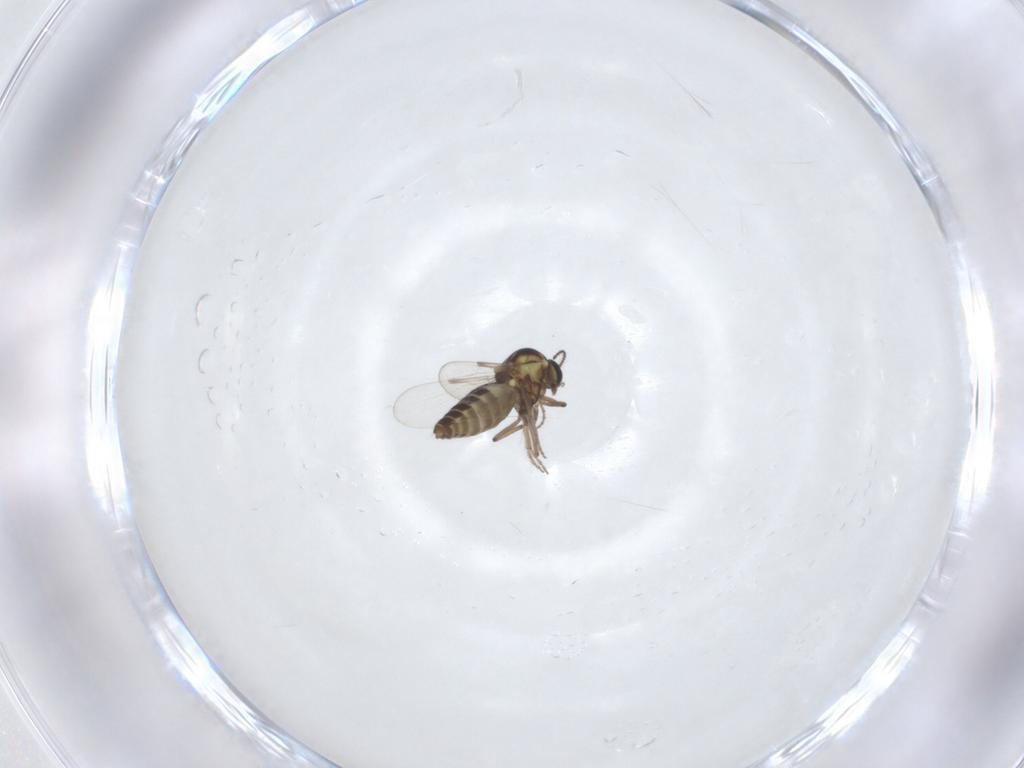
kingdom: Animalia
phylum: Arthropoda
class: Insecta
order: Diptera
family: Ceratopogonidae
